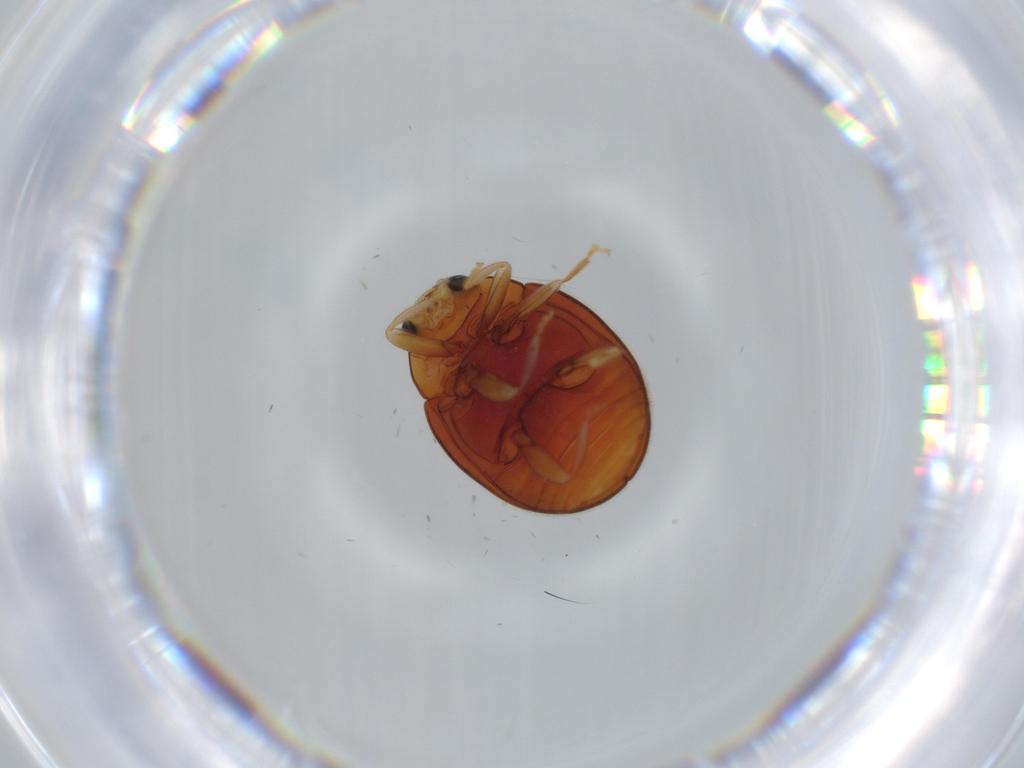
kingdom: Animalia
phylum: Arthropoda
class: Insecta
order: Coleoptera
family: Coccinellidae
